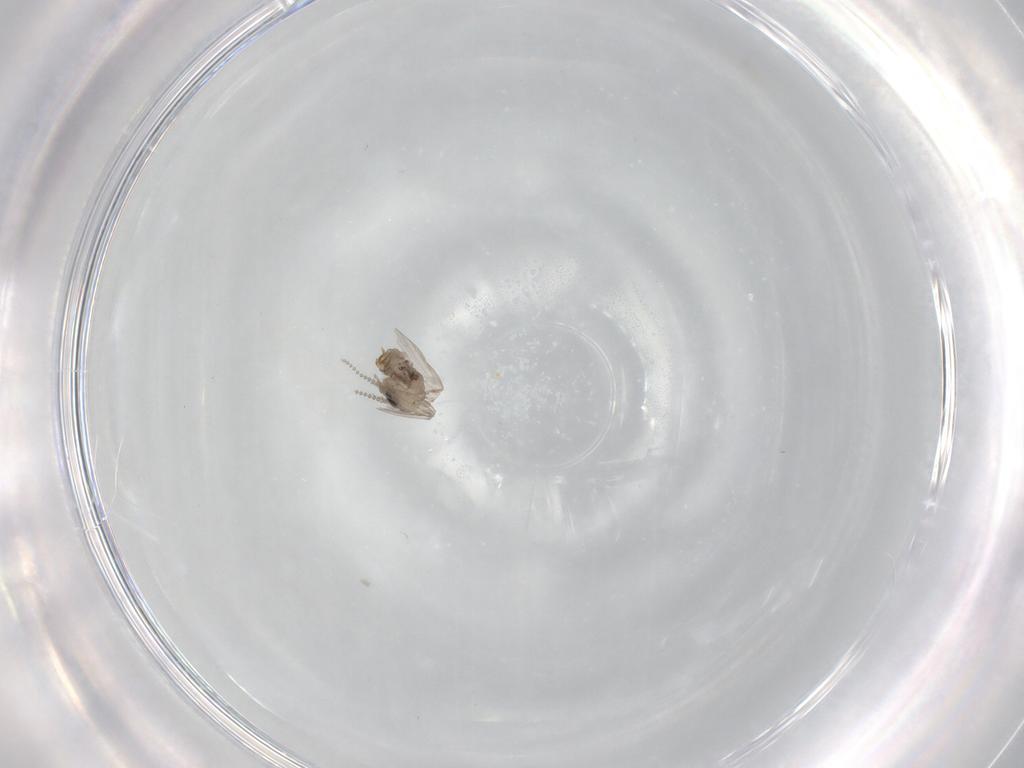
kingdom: Animalia
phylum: Arthropoda
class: Insecta
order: Diptera
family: Psychodidae
